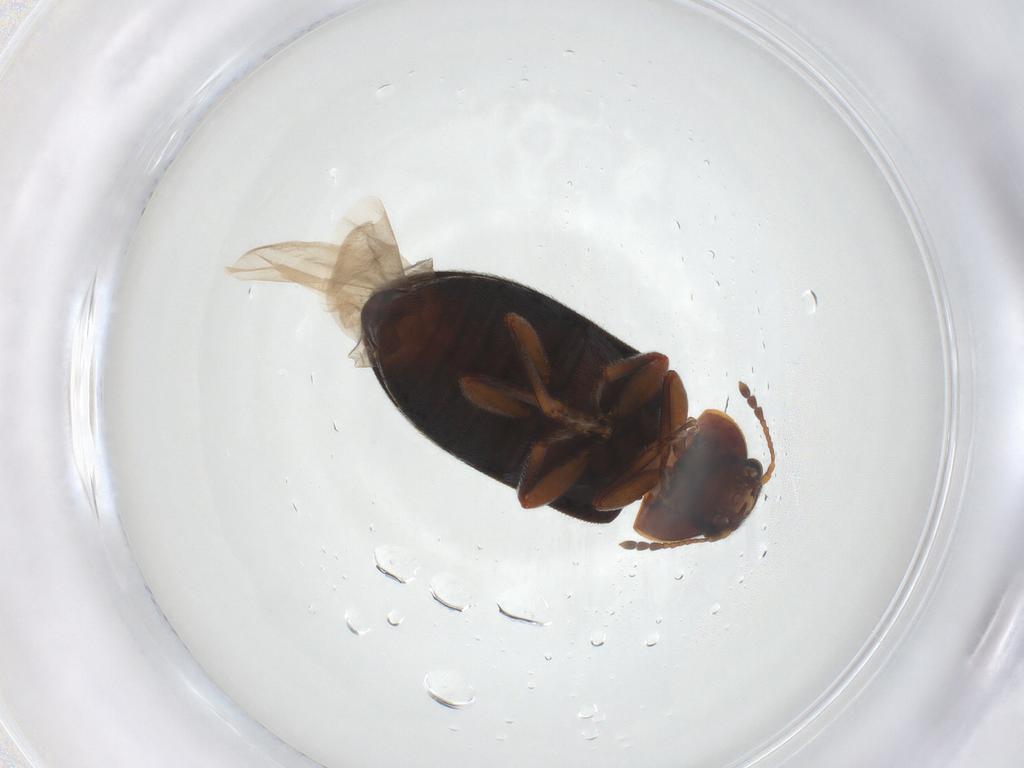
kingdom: Animalia
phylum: Arthropoda
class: Insecta
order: Coleoptera
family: Byturidae
